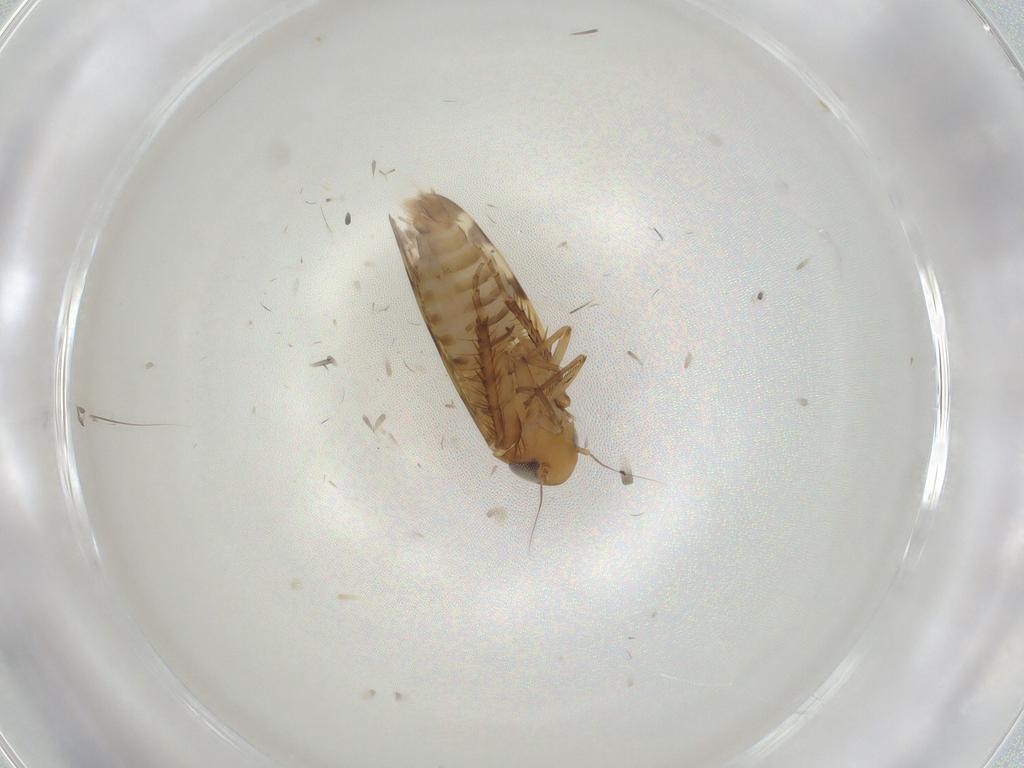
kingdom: Animalia
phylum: Arthropoda
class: Insecta
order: Hemiptera
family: Cicadellidae
